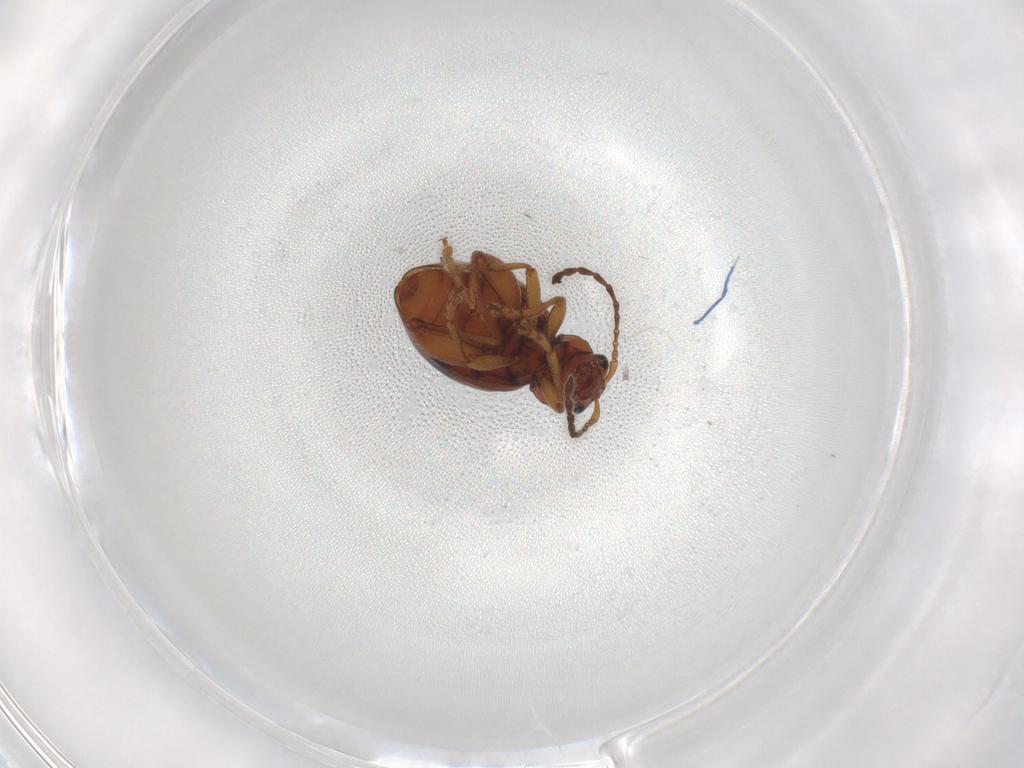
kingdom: Animalia
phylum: Arthropoda
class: Insecta
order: Coleoptera
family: Chrysomelidae
